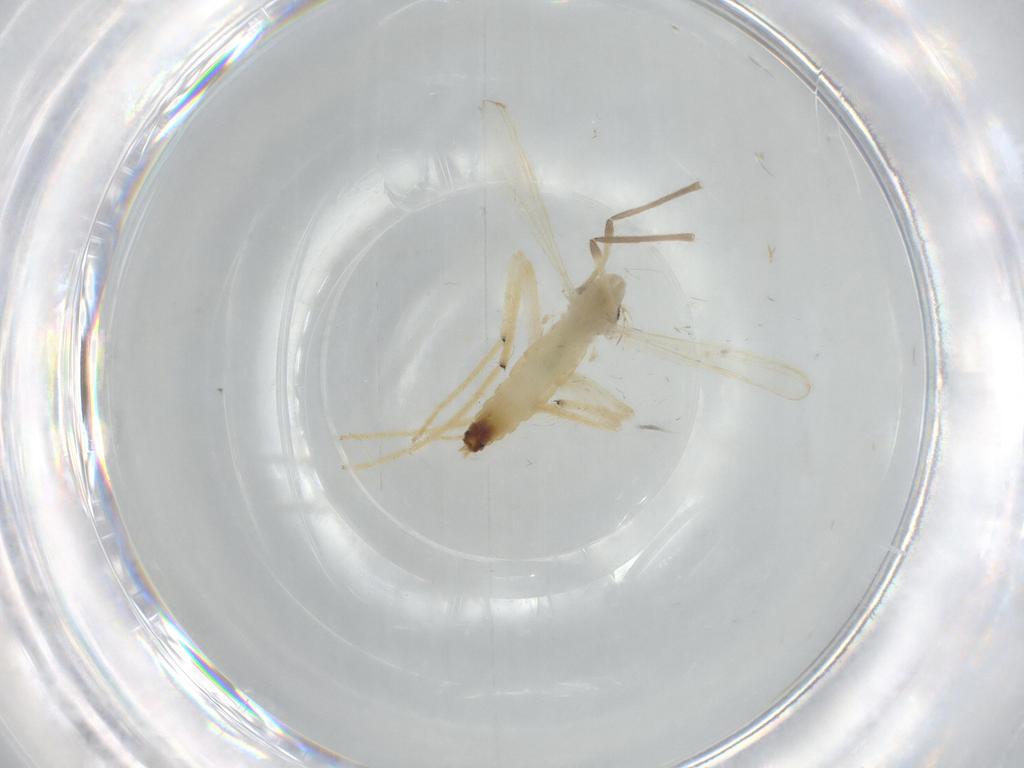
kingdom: Animalia
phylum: Arthropoda
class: Insecta
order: Diptera
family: Chironomidae
